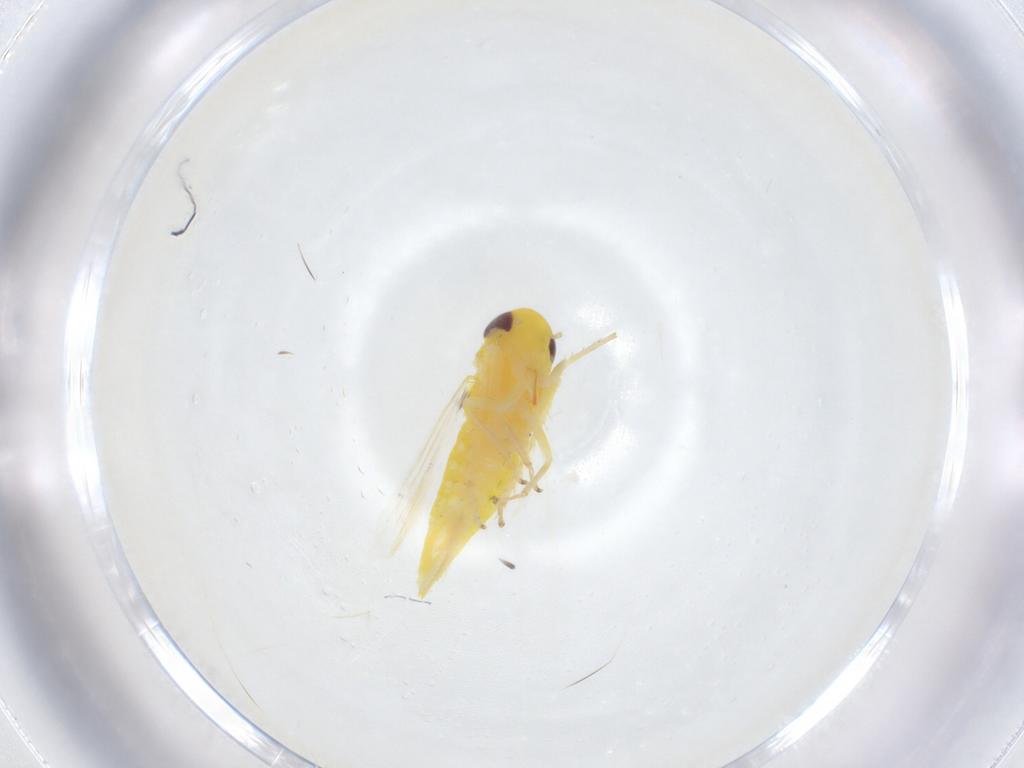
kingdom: Animalia
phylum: Arthropoda
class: Insecta
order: Hemiptera
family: Cicadellidae
